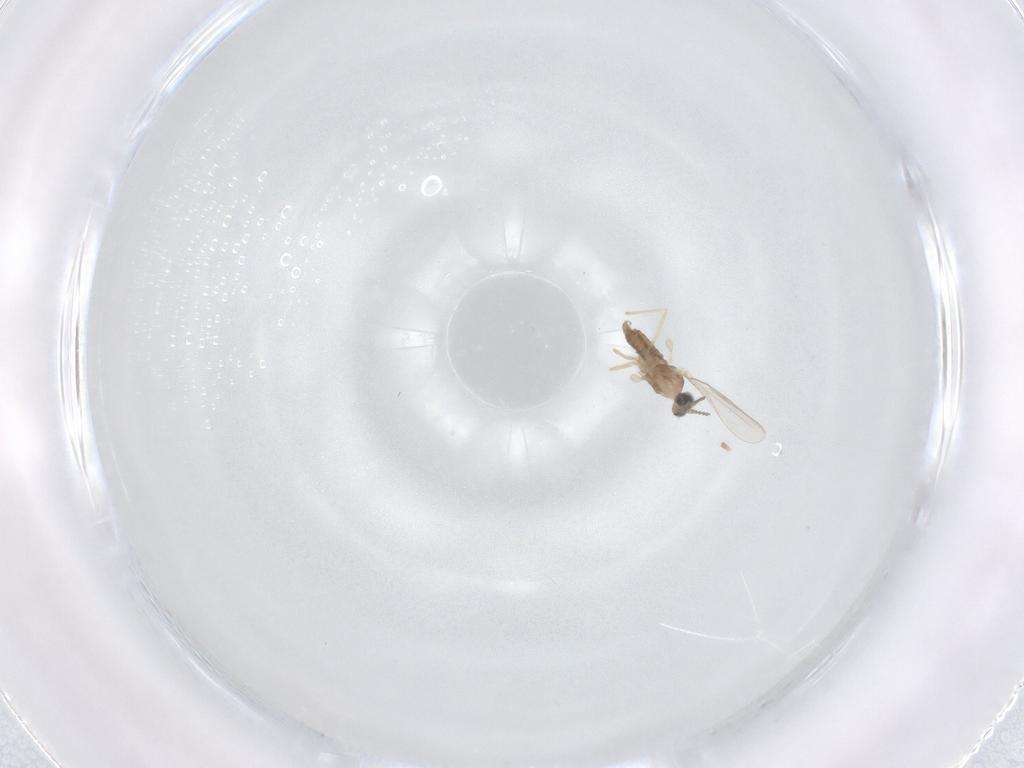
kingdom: Animalia
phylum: Arthropoda
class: Insecta
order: Diptera
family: Cecidomyiidae
